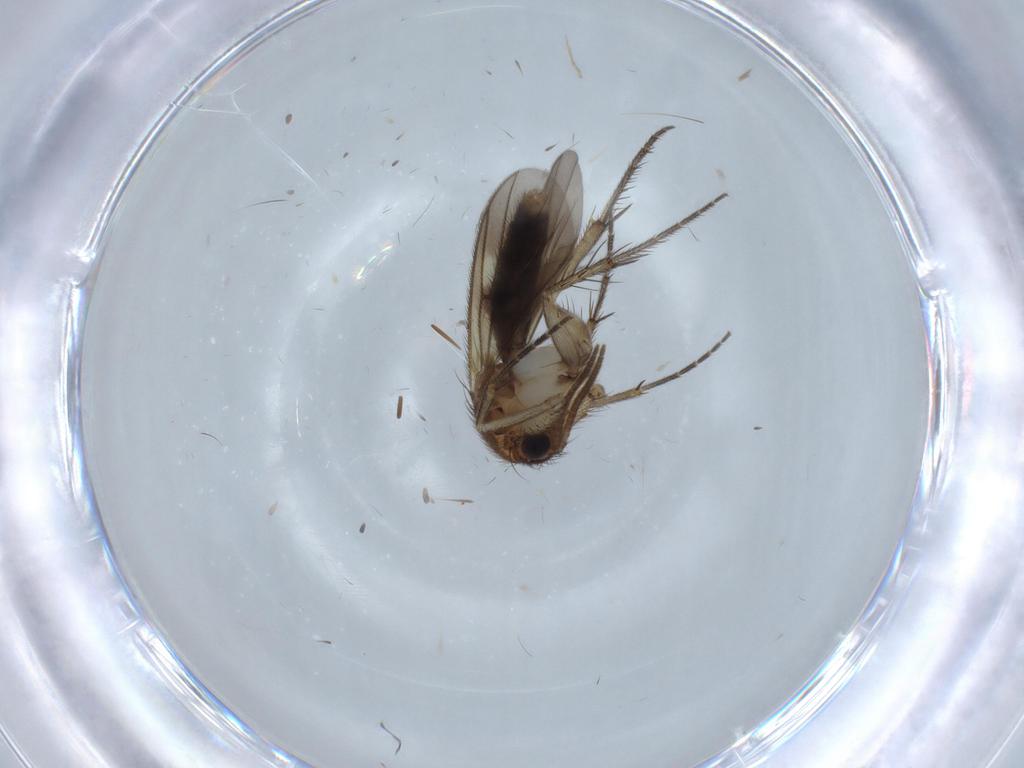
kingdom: Animalia
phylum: Arthropoda
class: Insecta
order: Diptera
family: Mycetophilidae
